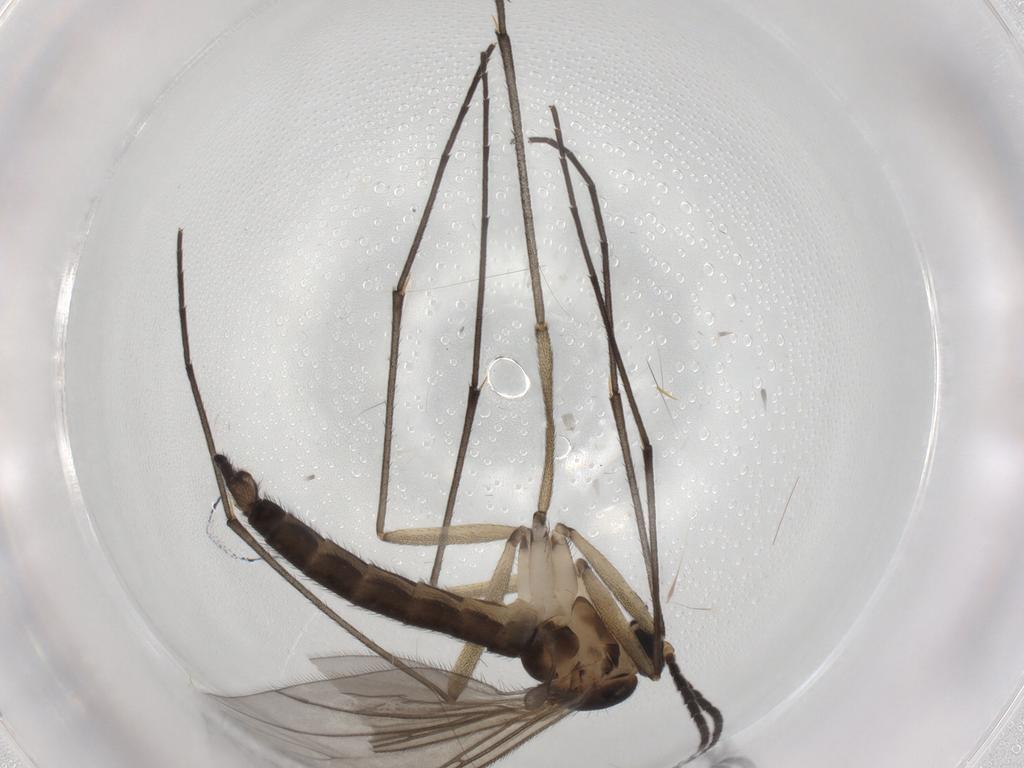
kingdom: Animalia
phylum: Arthropoda
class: Insecta
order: Diptera
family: Sciaridae
